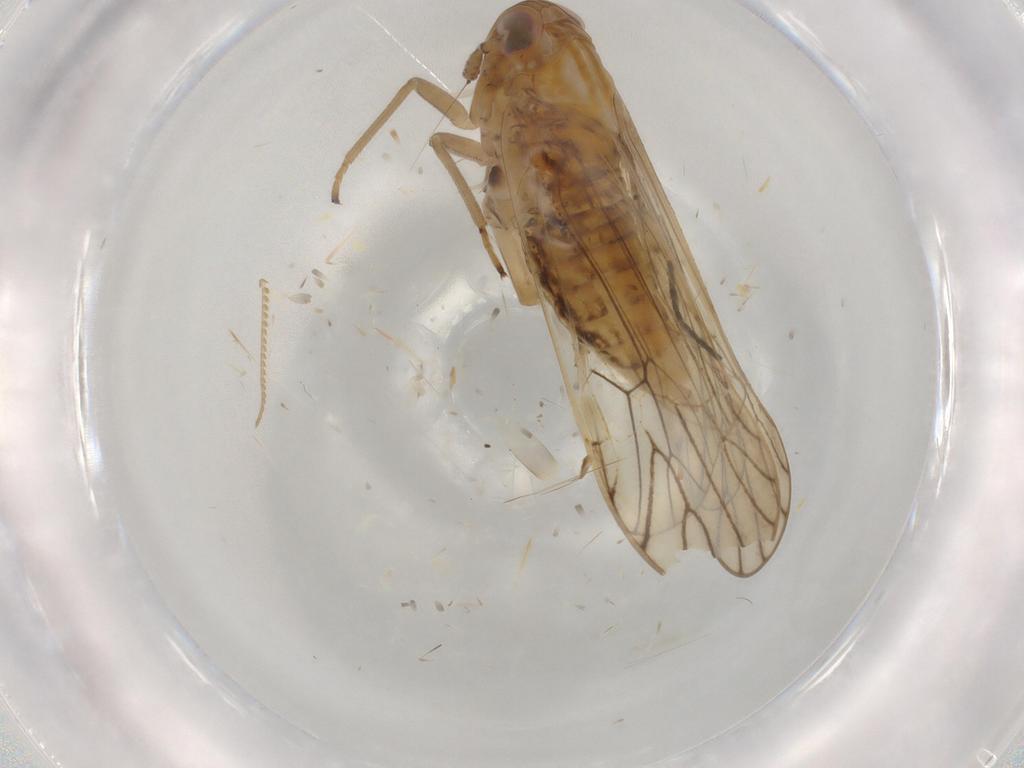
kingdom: Animalia
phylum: Arthropoda
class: Insecta
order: Hemiptera
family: Delphacidae
